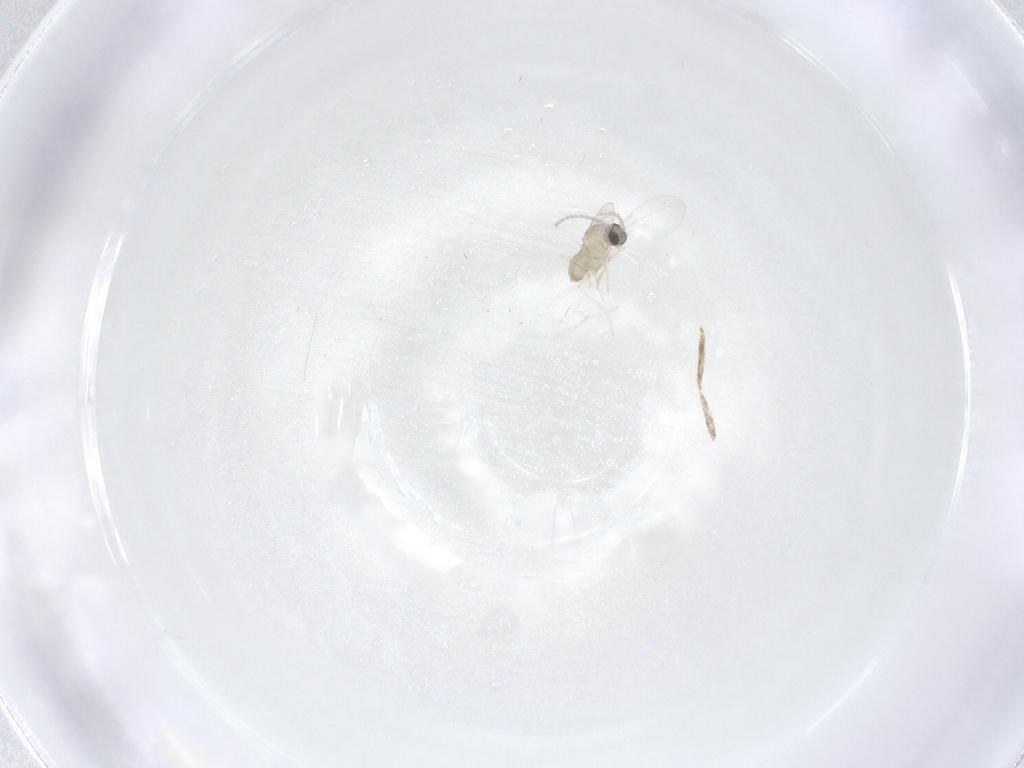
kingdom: Animalia
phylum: Arthropoda
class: Insecta
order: Diptera
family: Cecidomyiidae
